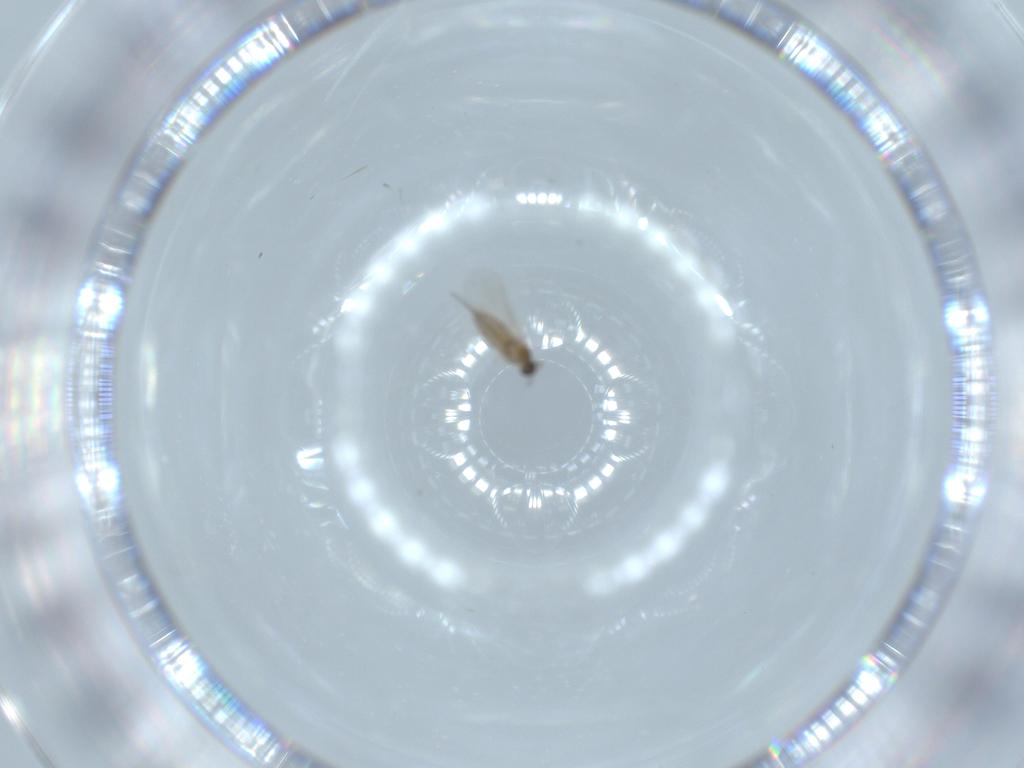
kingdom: Animalia
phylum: Arthropoda
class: Insecta
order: Diptera
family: Cecidomyiidae
